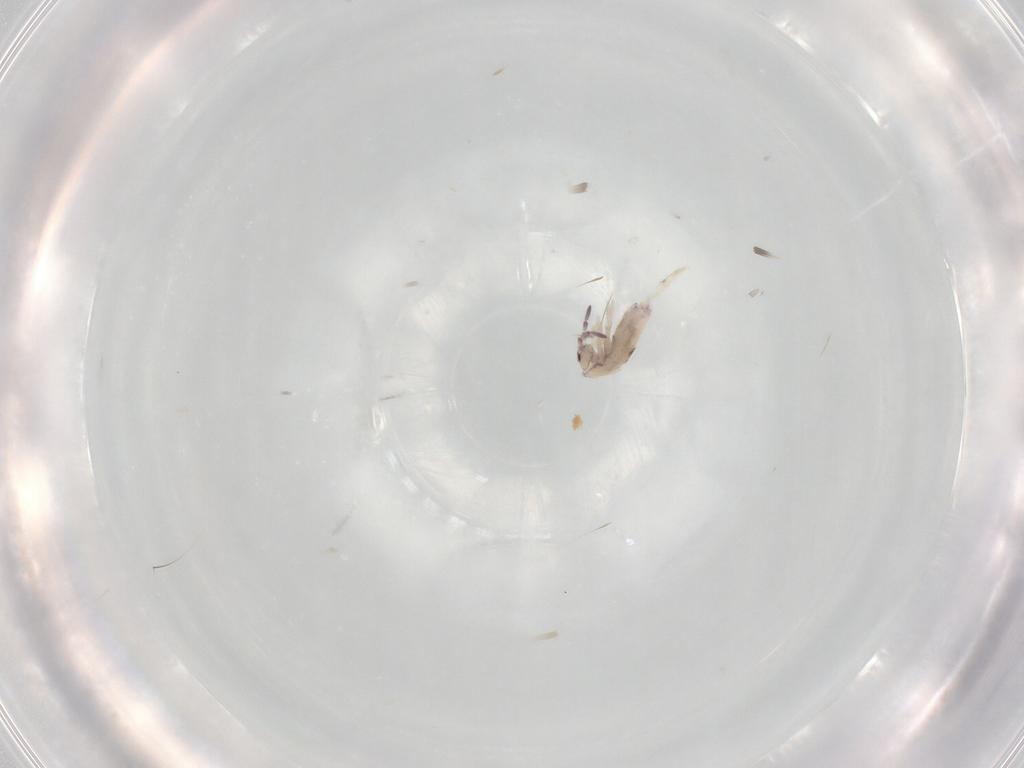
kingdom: Animalia
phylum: Arthropoda
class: Collembola
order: Entomobryomorpha
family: Entomobryidae
